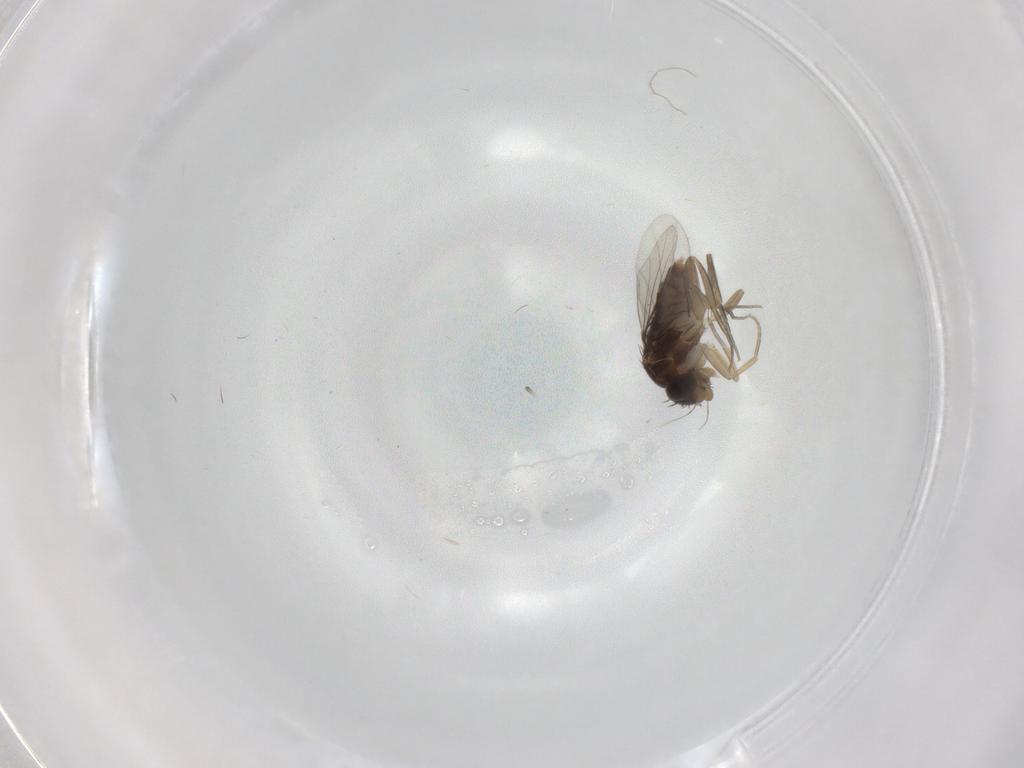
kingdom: Animalia
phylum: Arthropoda
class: Insecta
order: Diptera
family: Phoridae
